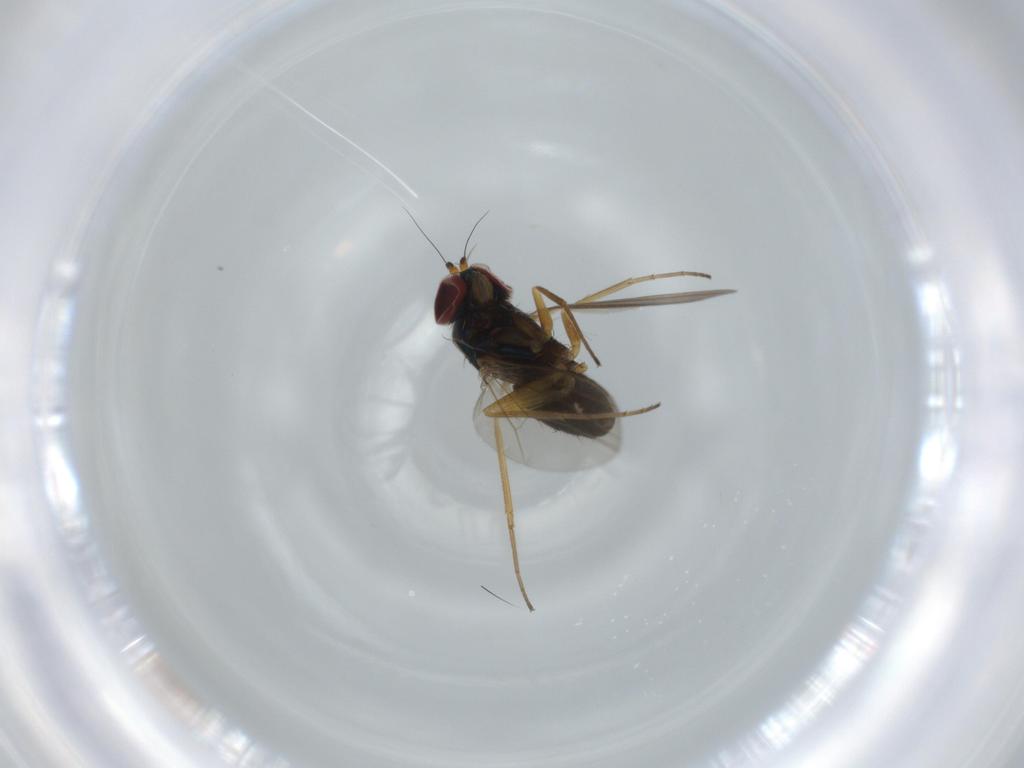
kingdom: Animalia
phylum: Arthropoda
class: Insecta
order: Diptera
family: Dolichopodidae
